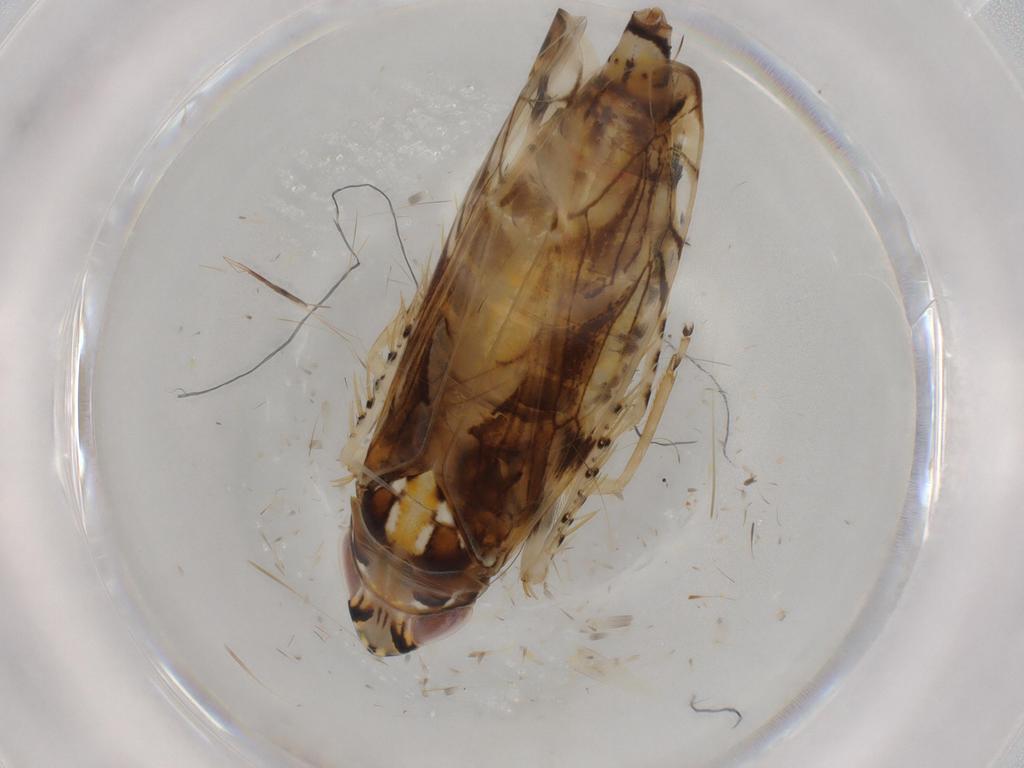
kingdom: Animalia
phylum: Arthropoda
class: Insecta
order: Hemiptera
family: Cicadellidae
